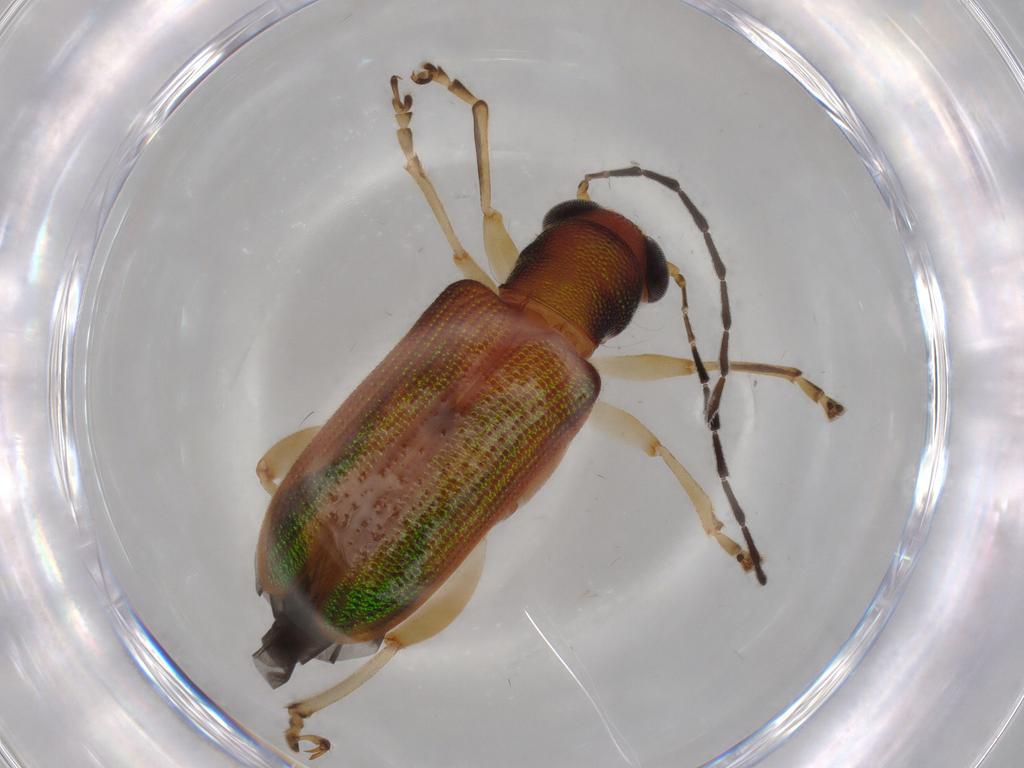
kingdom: Animalia
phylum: Arthropoda
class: Insecta
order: Coleoptera
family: Chrysomelidae
